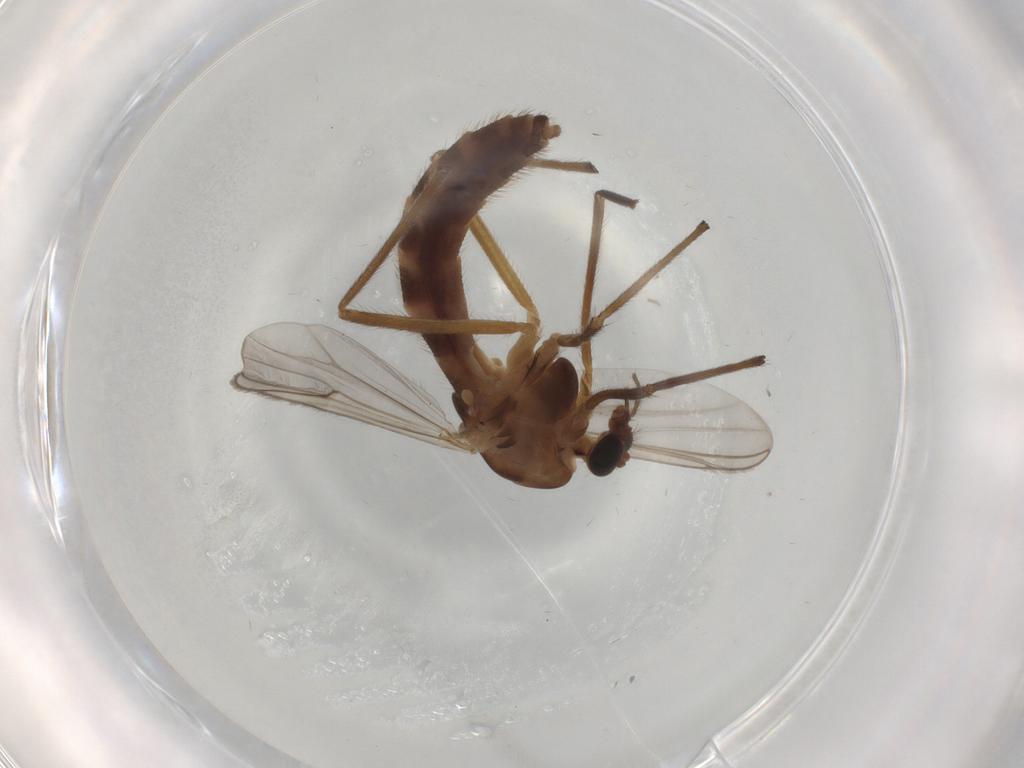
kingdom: Animalia
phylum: Arthropoda
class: Insecta
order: Diptera
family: Chironomidae
